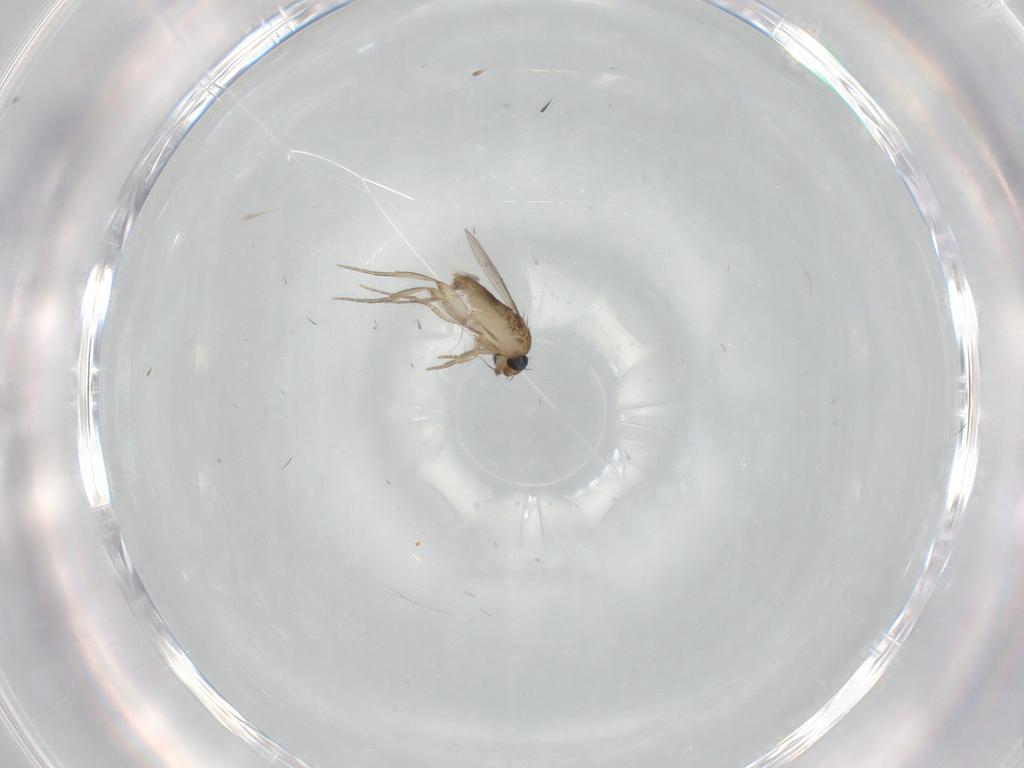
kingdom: Animalia
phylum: Arthropoda
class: Insecta
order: Diptera
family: Phoridae
